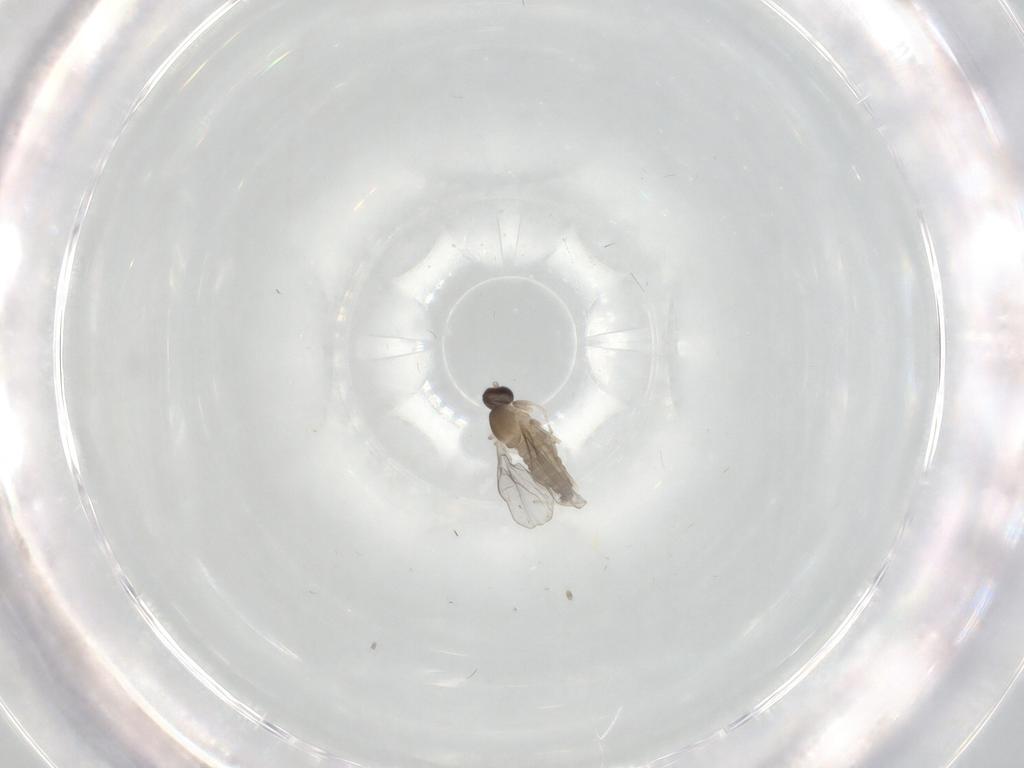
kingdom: Animalia
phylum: Arthropoda
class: Insecta
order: Diptera
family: Cecidomyiidae
